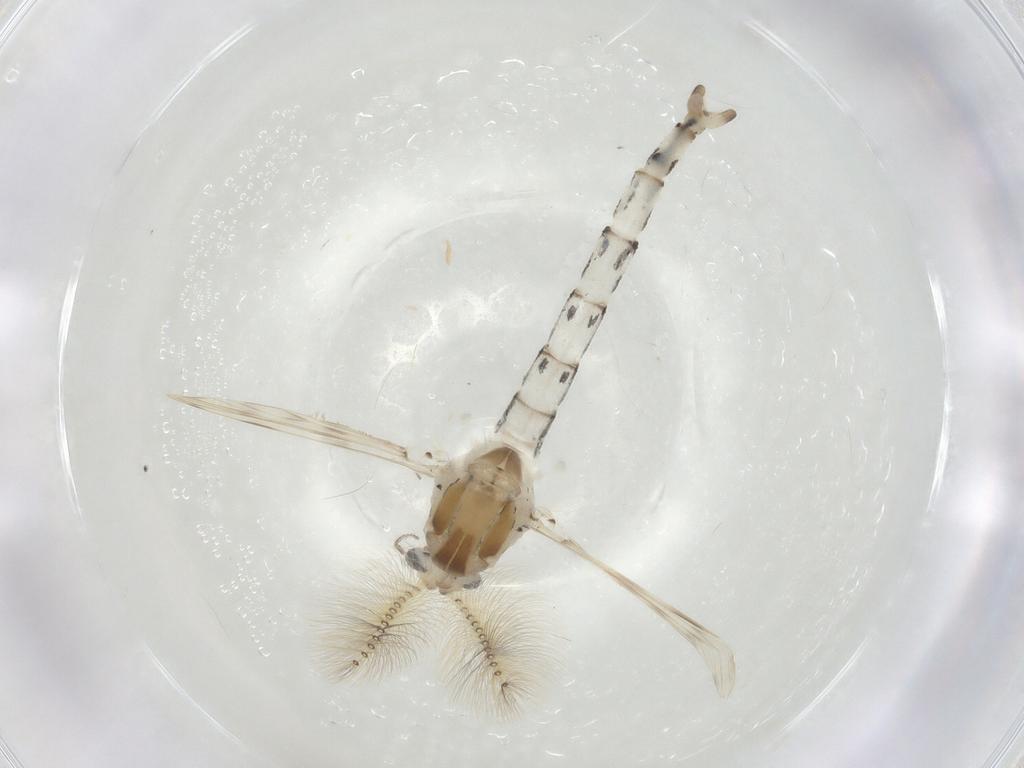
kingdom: Animalia
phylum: Arthropoda
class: Insecta
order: Diptera
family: Chaoboridae
